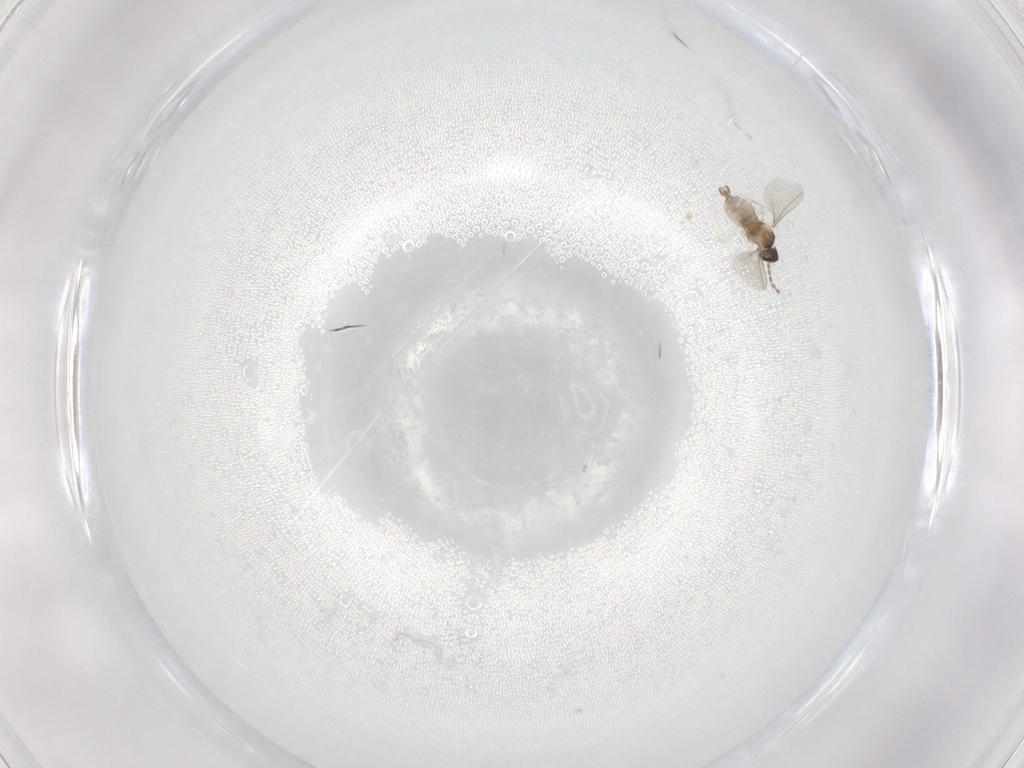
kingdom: Animalia
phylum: Arthropoda
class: Insecta
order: Diptera
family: Cecidomyiidae
